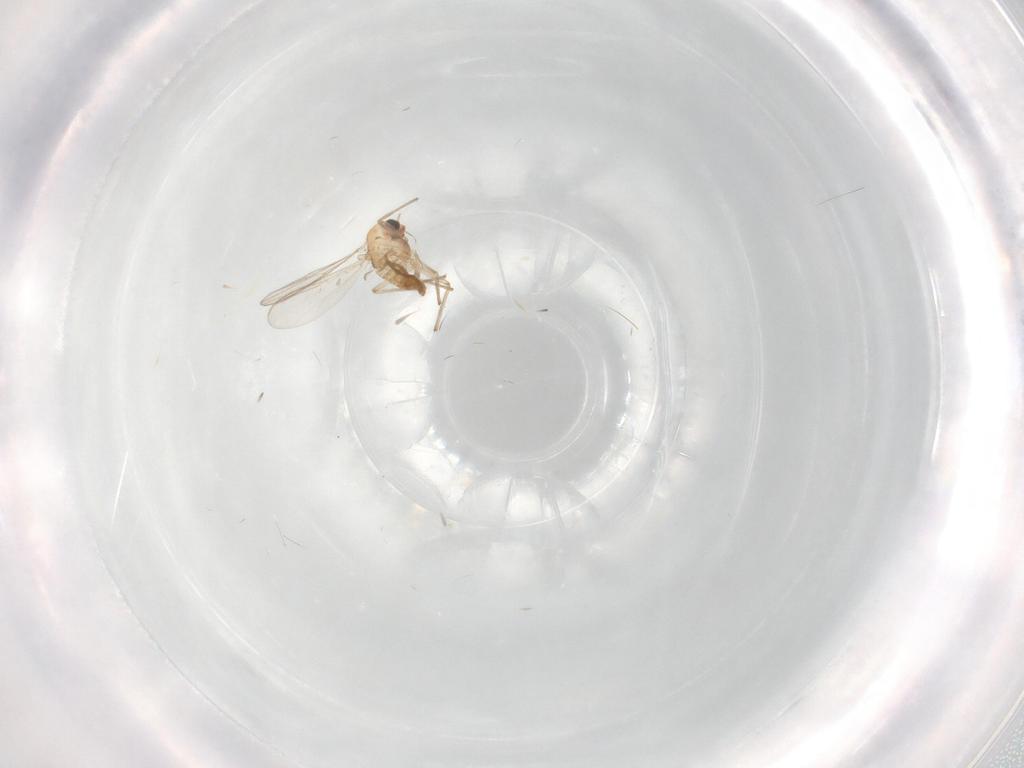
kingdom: Animalia
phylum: Arthropoda
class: Insecta
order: Diptera
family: Chironomidae
